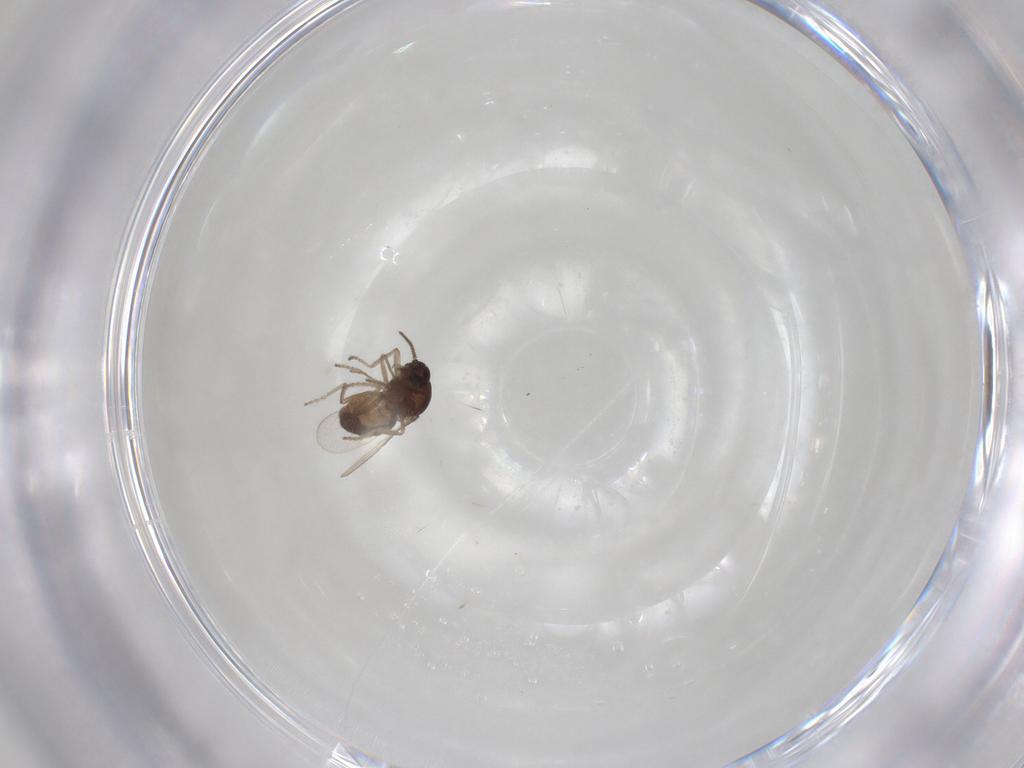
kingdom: Animalia
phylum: Arthropoda
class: Insecta
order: Diptera
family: Ceratopogonidae
